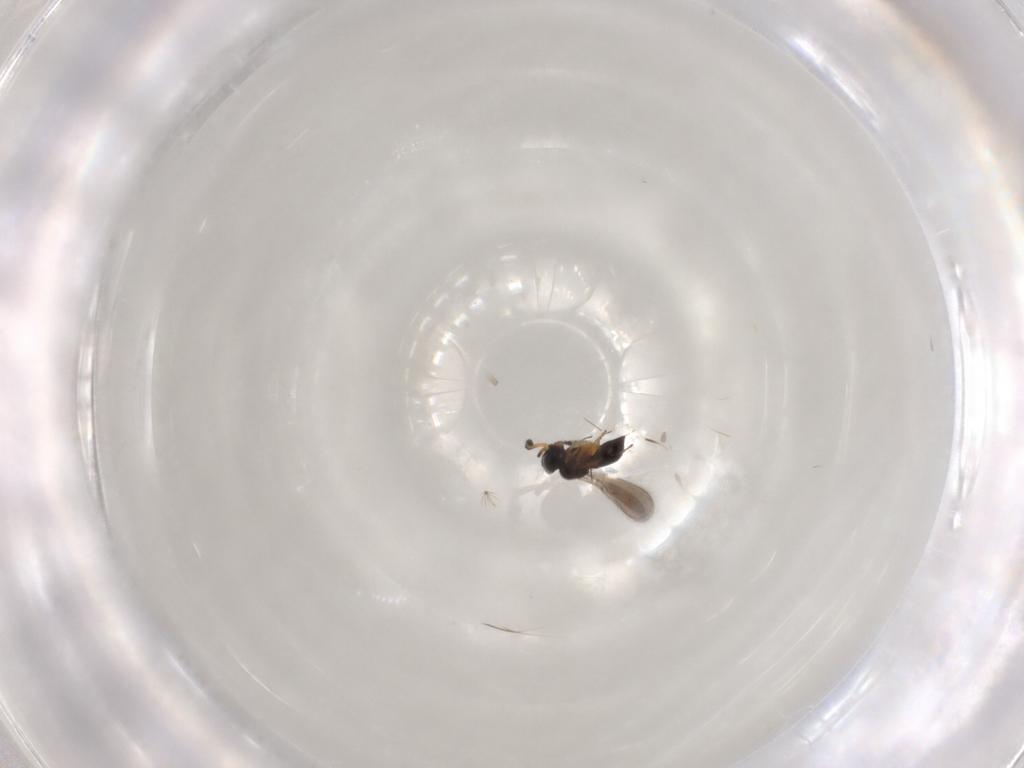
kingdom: Animalia
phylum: Arthropoda
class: Insecta
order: Hymenoptera
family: Scelionidae
